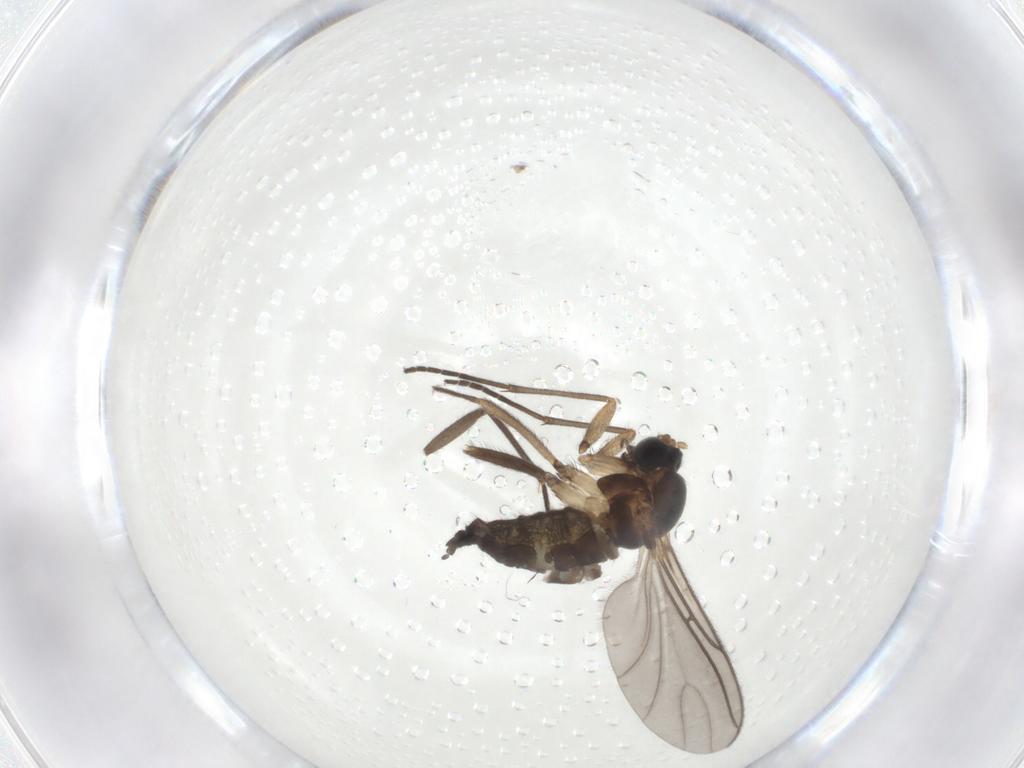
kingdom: Animalia
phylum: Arthropoda
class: Insecta
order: Diptera
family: Sciaridae
